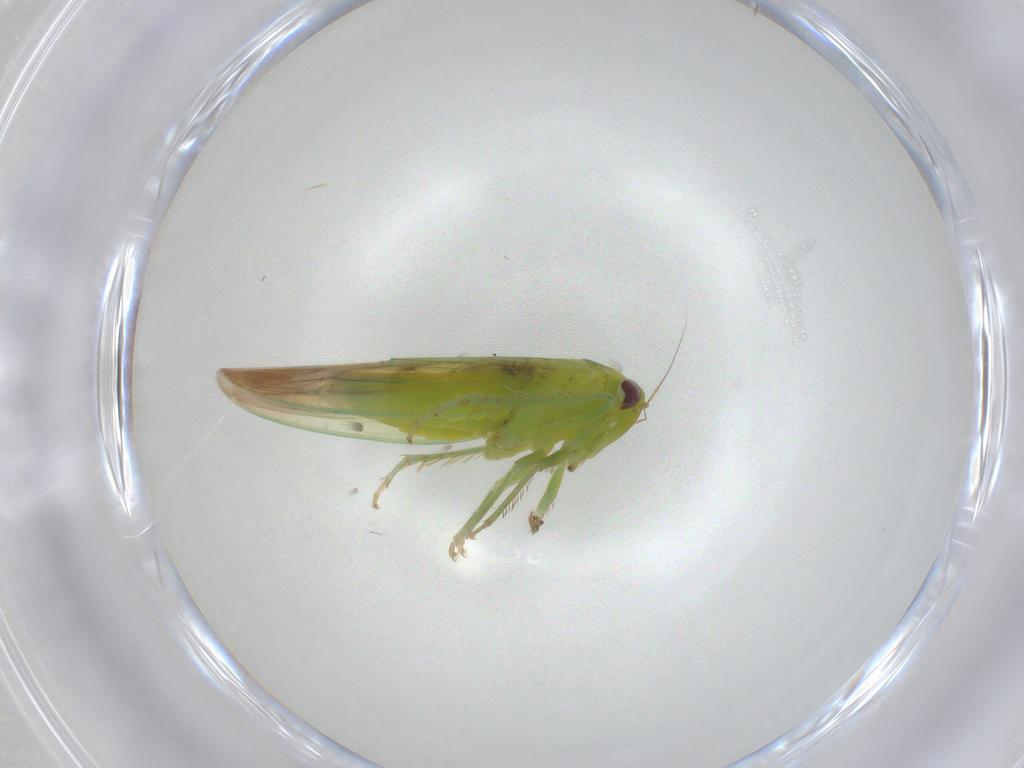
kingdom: Animalia
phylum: Arthropoda
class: Insecta
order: Hemiptera
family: Cicadellidae
